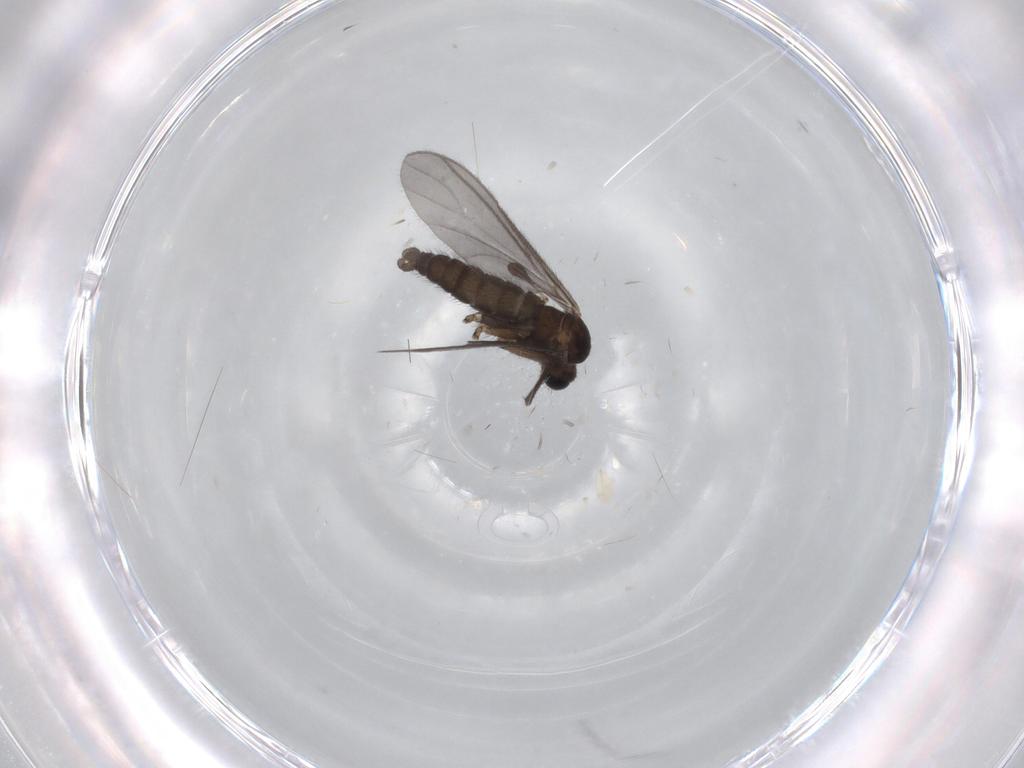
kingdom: Animalia
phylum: Arthropoda
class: Insecta
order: Diptera
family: Sciaridae
